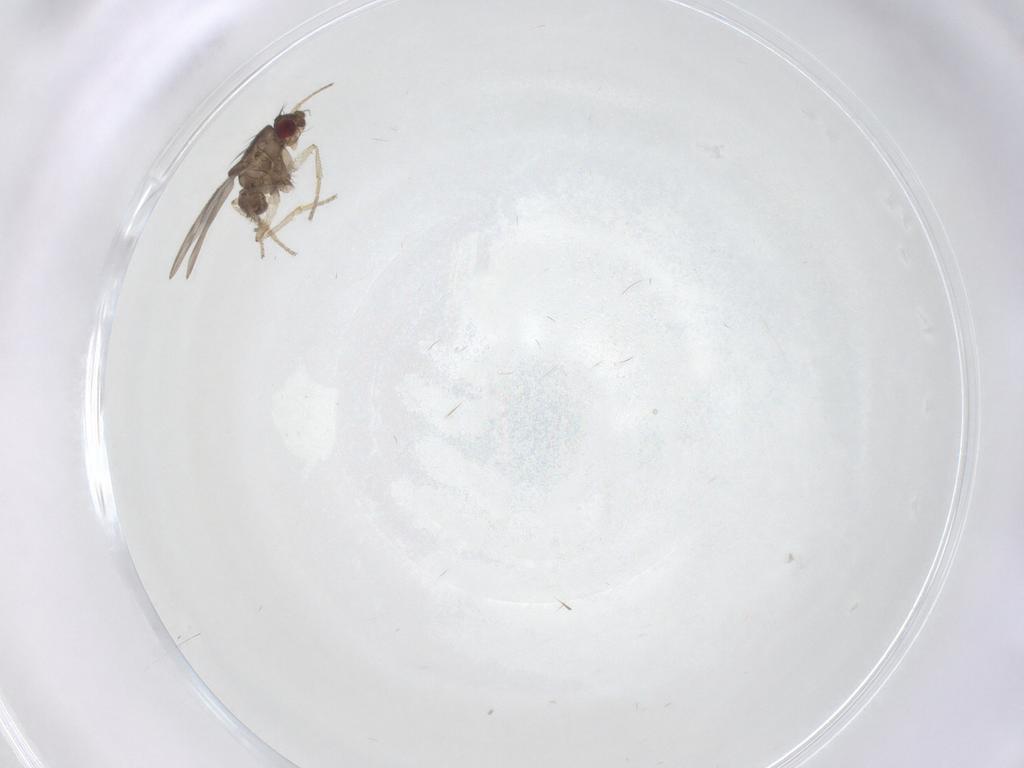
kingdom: Animalia
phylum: Arthropoda
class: Insecta
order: Diptera
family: Sphaeroceridae
